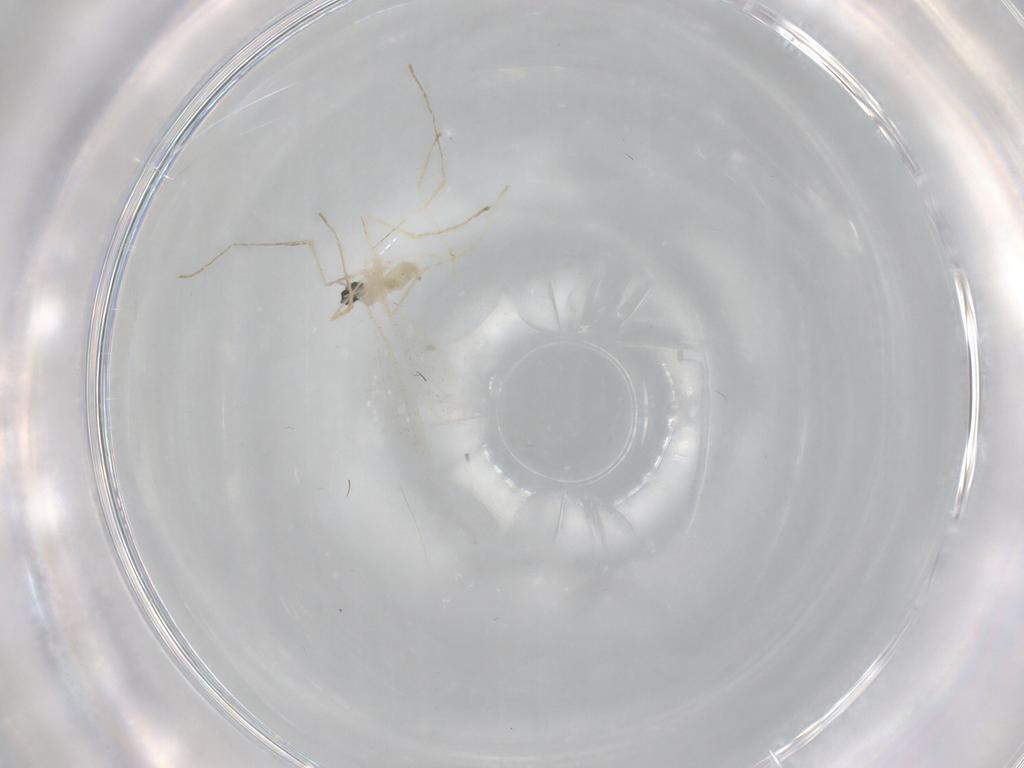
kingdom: Animalia
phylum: Arthropoda
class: Insecta
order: Diptera
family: Cecidomyiidae
